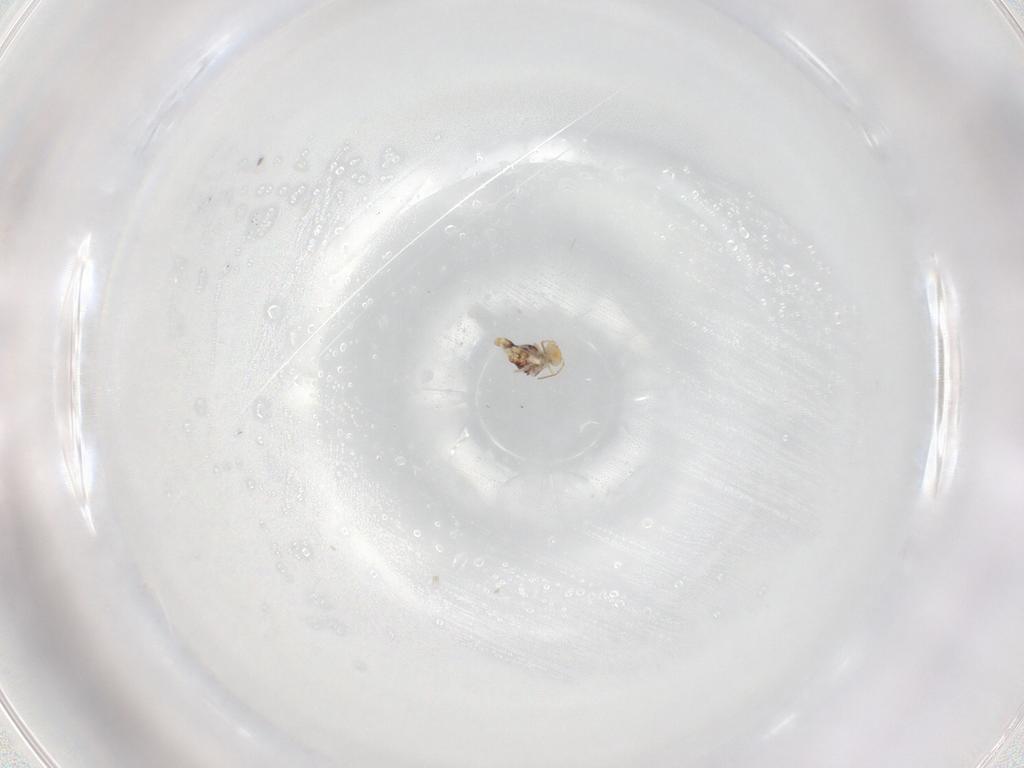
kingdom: Animalia
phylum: Arthropoda
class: Collembola
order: Symphypleona
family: Bourletiellidae
